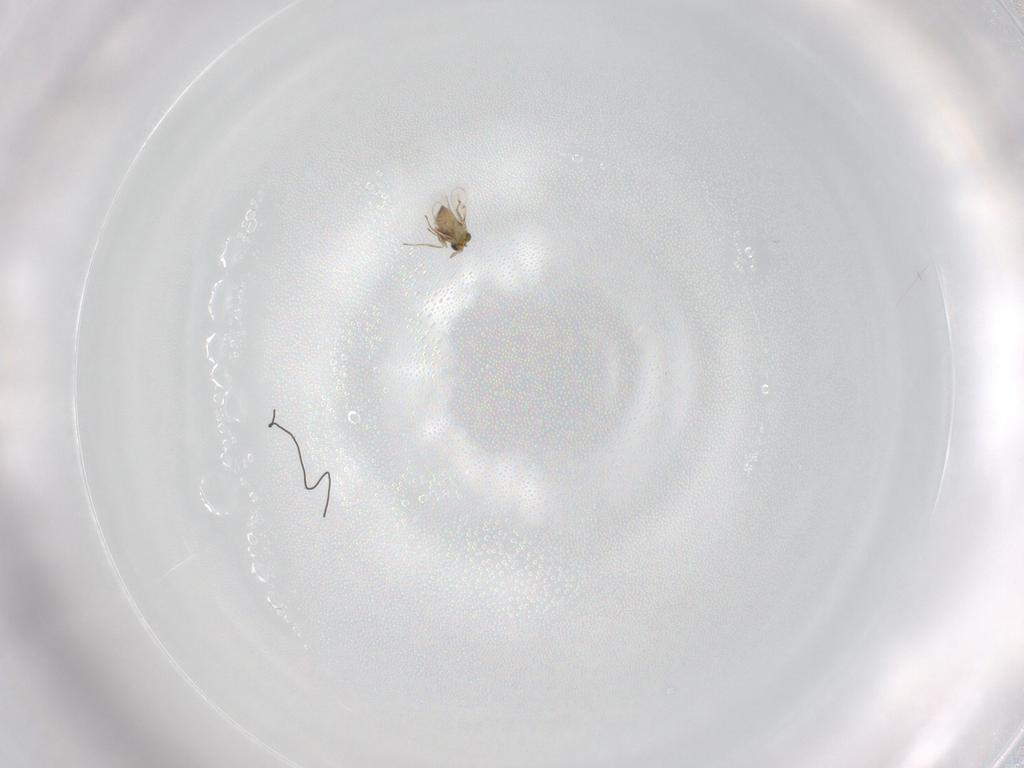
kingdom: Animalia
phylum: Arthropoda
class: Insecta
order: Hymenoptera
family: Trichogrammatidae
